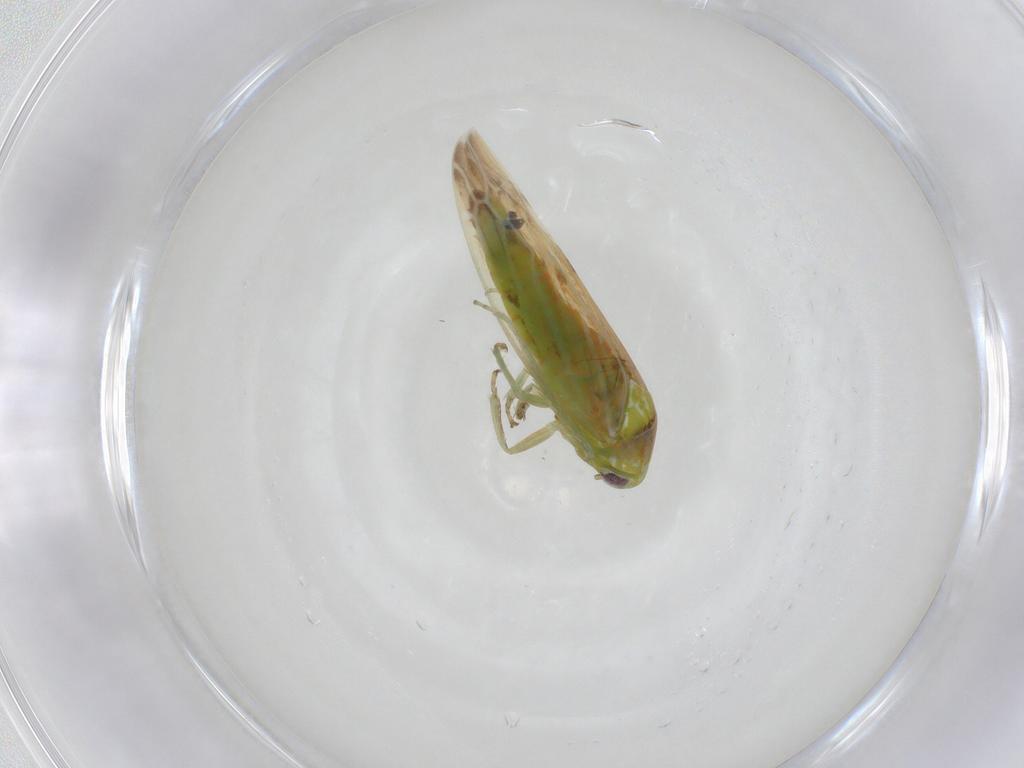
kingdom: Animalia
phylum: Arthropoda
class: Insecta
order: Hemiptera
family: Cicadellidae
